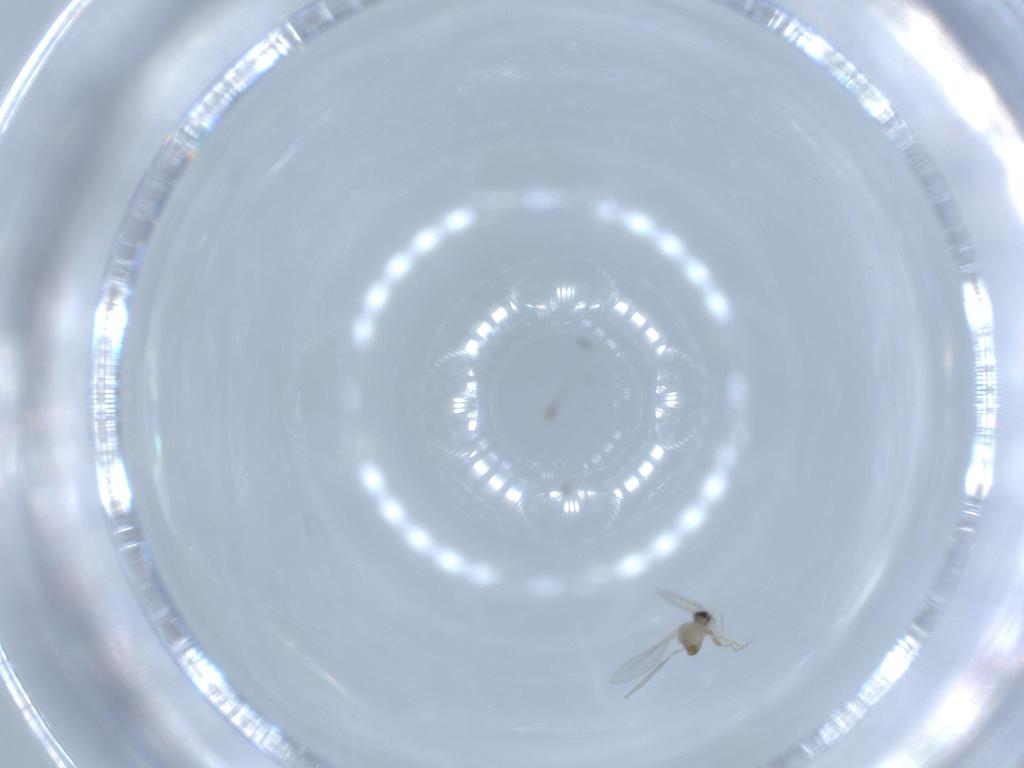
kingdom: Animalia
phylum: Arthropoda
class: Insecta
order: Diptera
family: Cecidomyiidae
